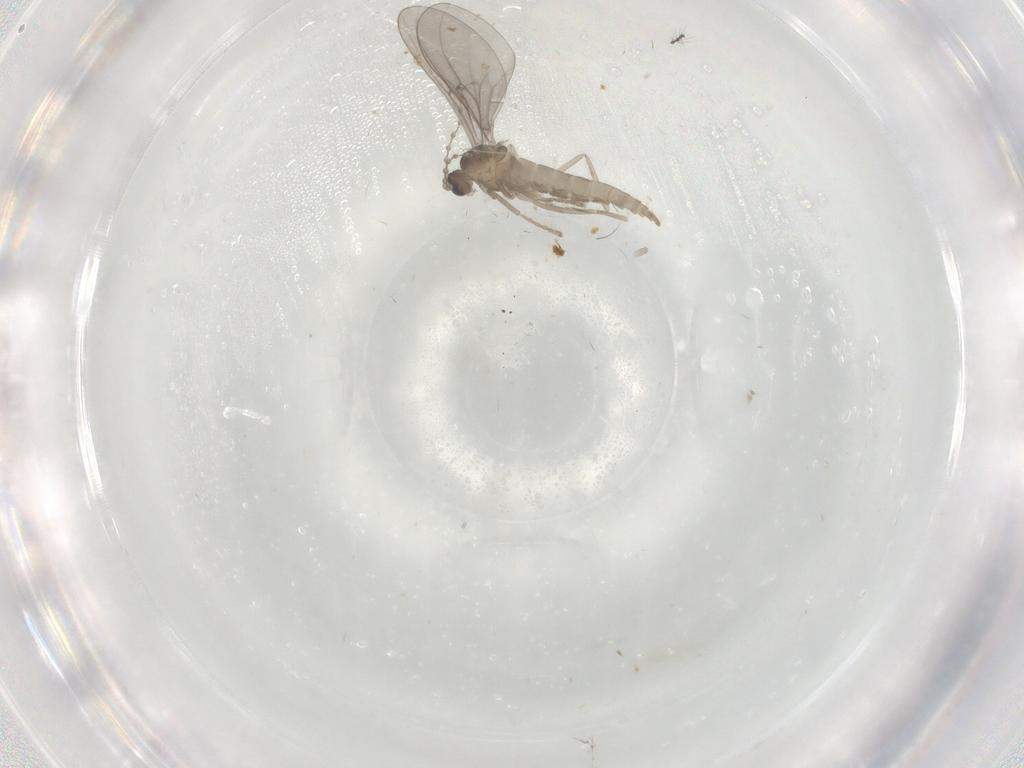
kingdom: Animalia
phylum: Arthropoda
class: Insecta
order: Diptera
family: Cecidomyiidae
